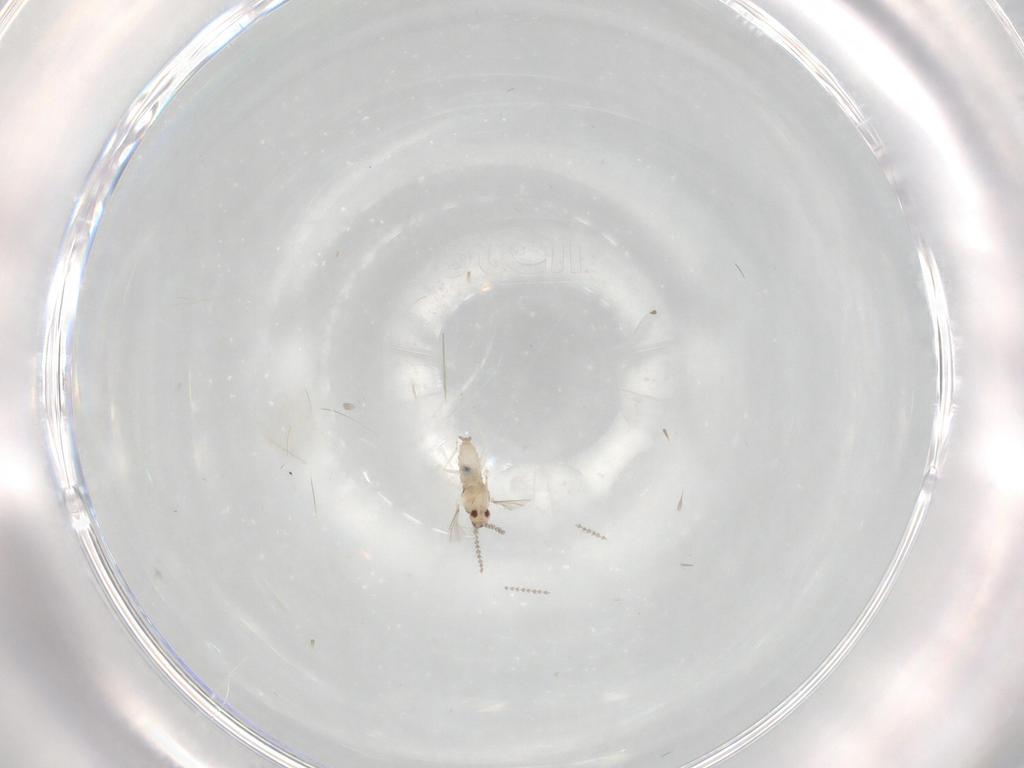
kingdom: Animalia
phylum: Arthropoda
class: Insecta
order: Diptera
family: Cecidomyiidae
